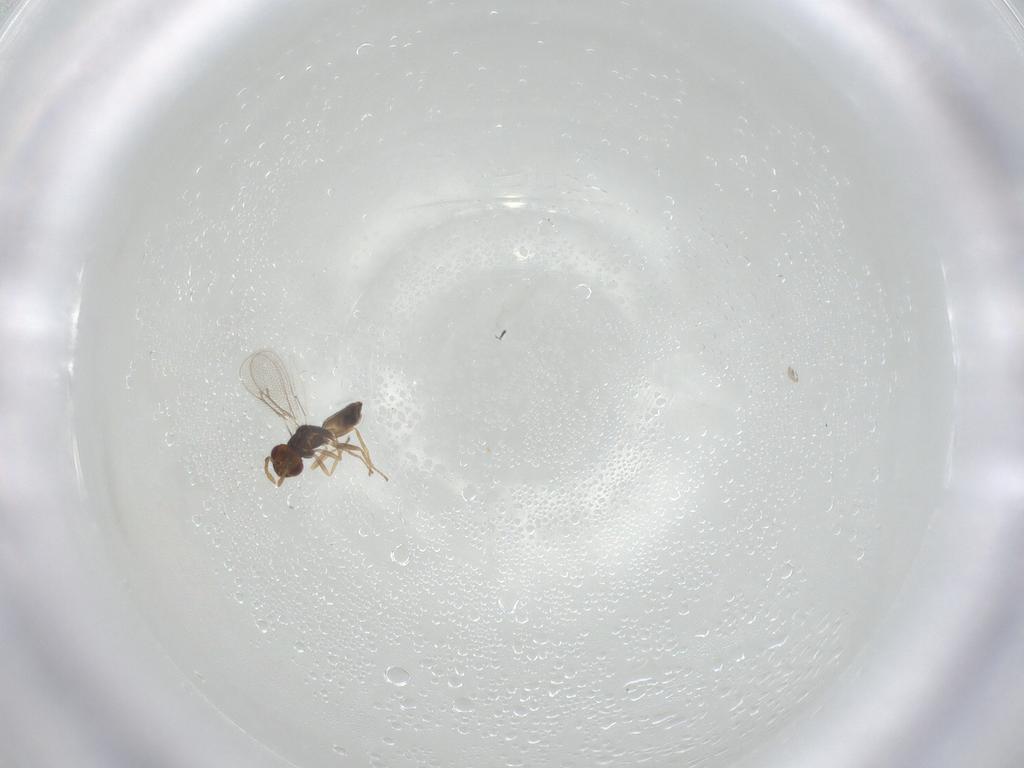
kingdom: Animalia
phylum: Arthropoda
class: Insecta
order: Hymenoptera
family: Eulophidae
